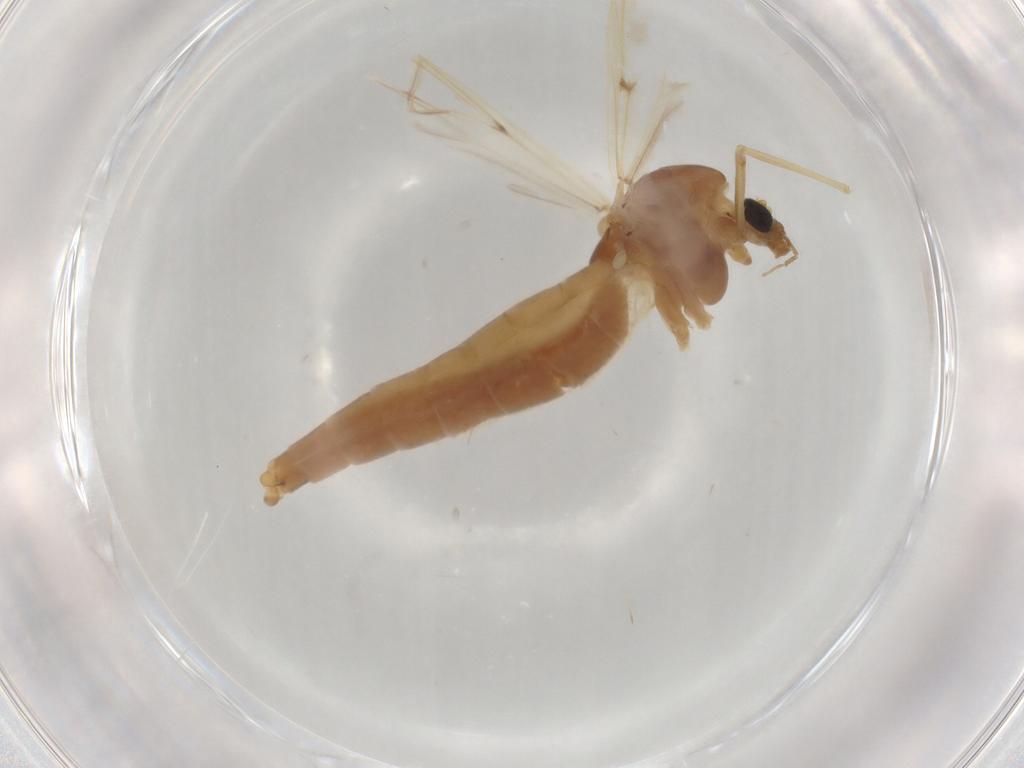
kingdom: Animalia
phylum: Arthropoda
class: Insecta
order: Diptera
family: Chironomidae
